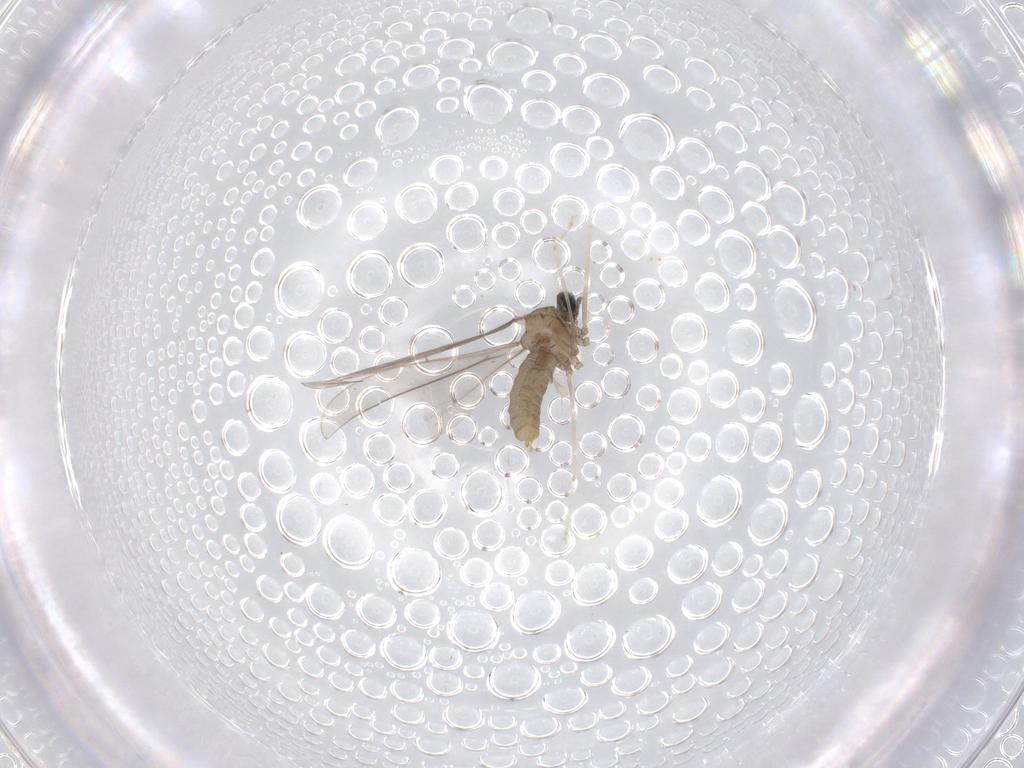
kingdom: Animalia
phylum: Arthropoda
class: Insecta
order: Diptera
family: Cecidomyiidae
